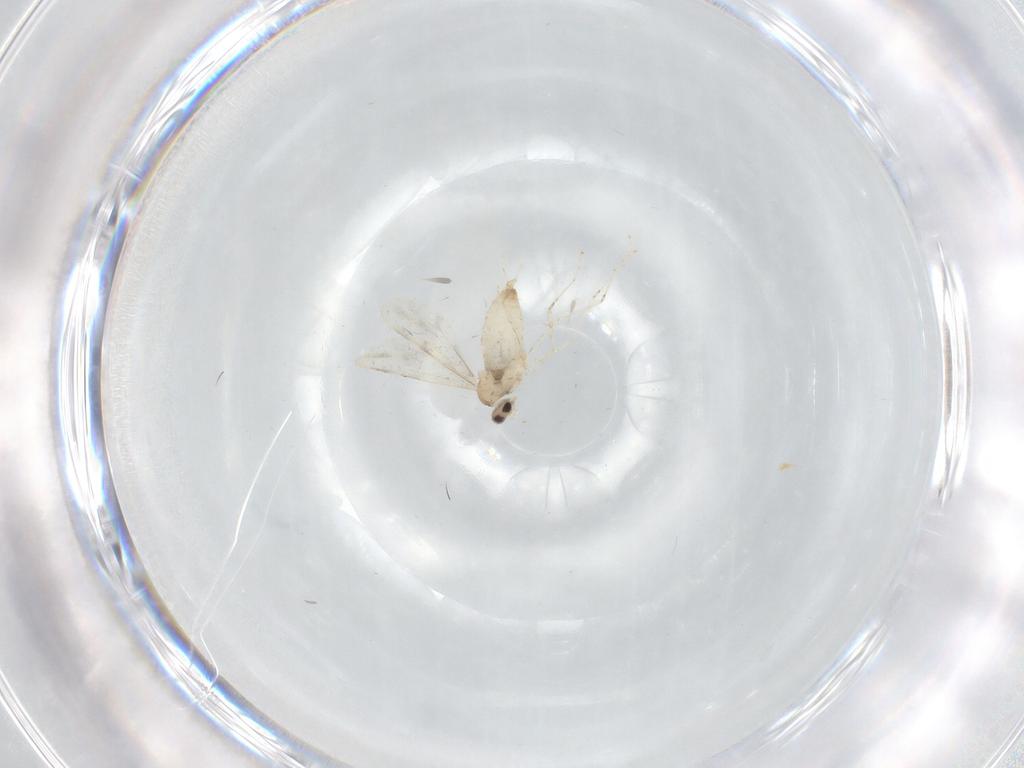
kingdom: Animalia
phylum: Arthropoda
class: Insecta
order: Diptera
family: Cecidomyiidae
